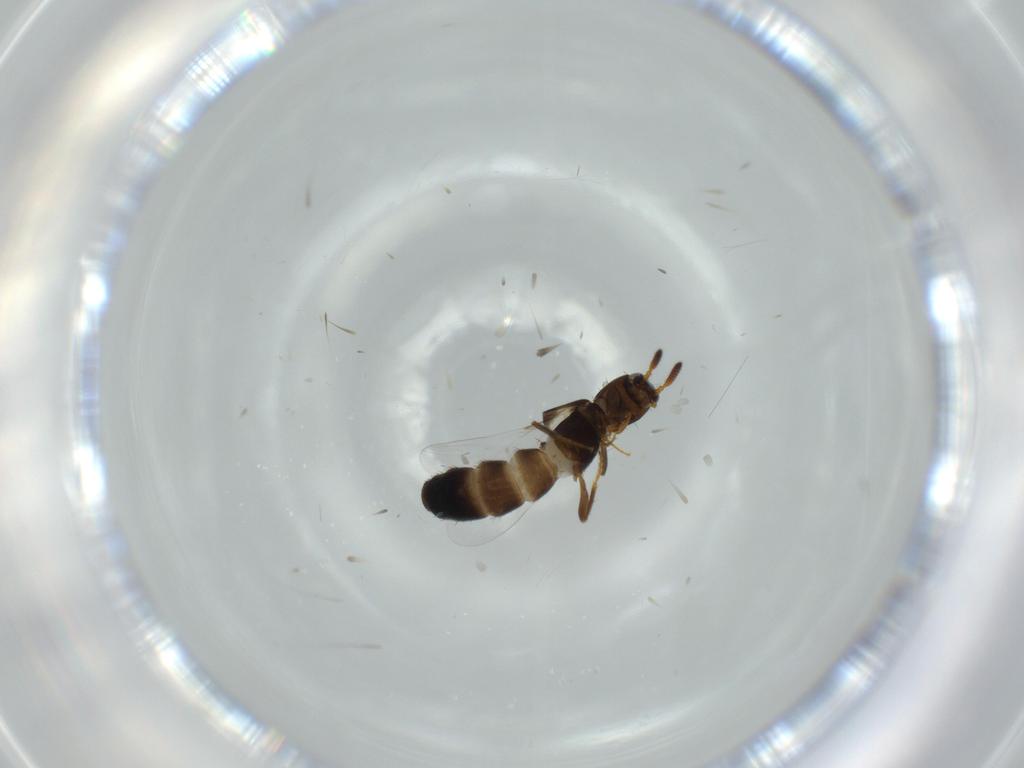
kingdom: Animalia
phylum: Arthropoda
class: Insecta
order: Coleoptera
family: Staphylinidae
